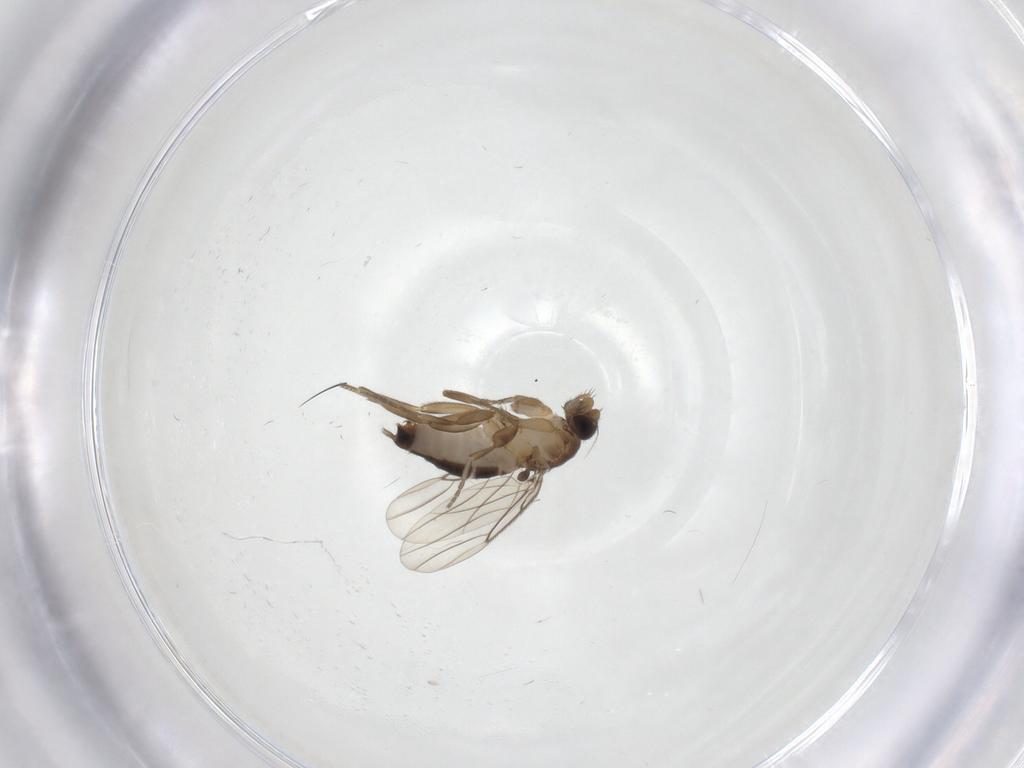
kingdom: Animalia
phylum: Arthropoda
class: Insecta
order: Diptera
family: Phoridae
